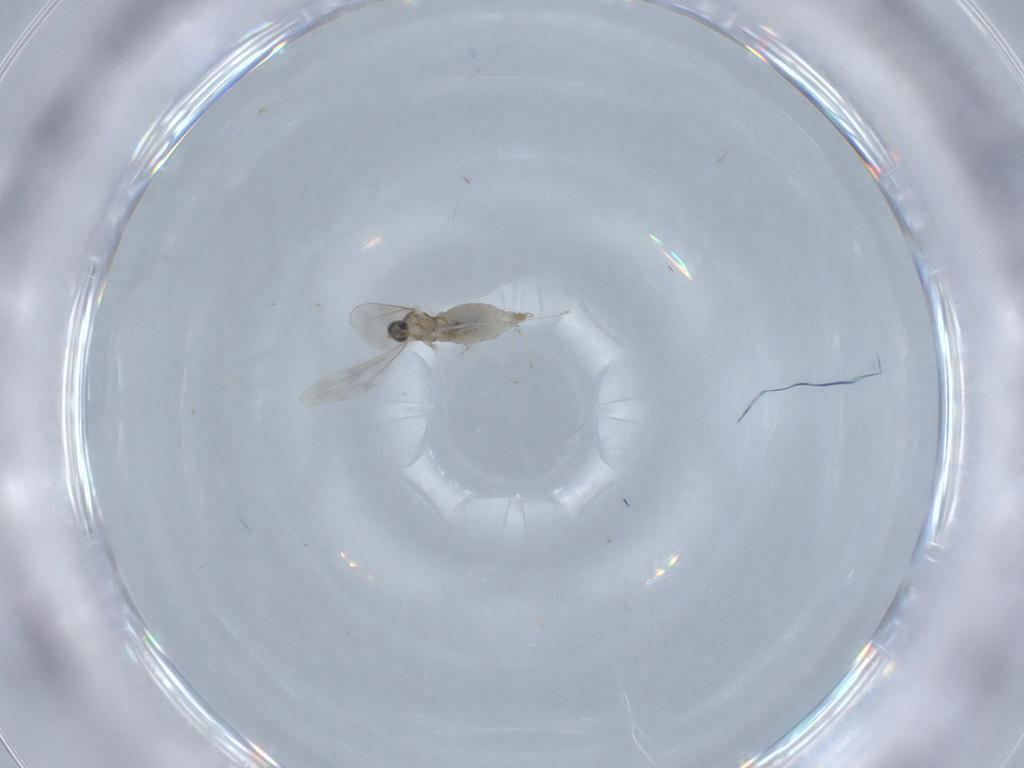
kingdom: Animalia
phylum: Arthropoda
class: Insecta
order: Diptera
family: Cecidomyiidae
